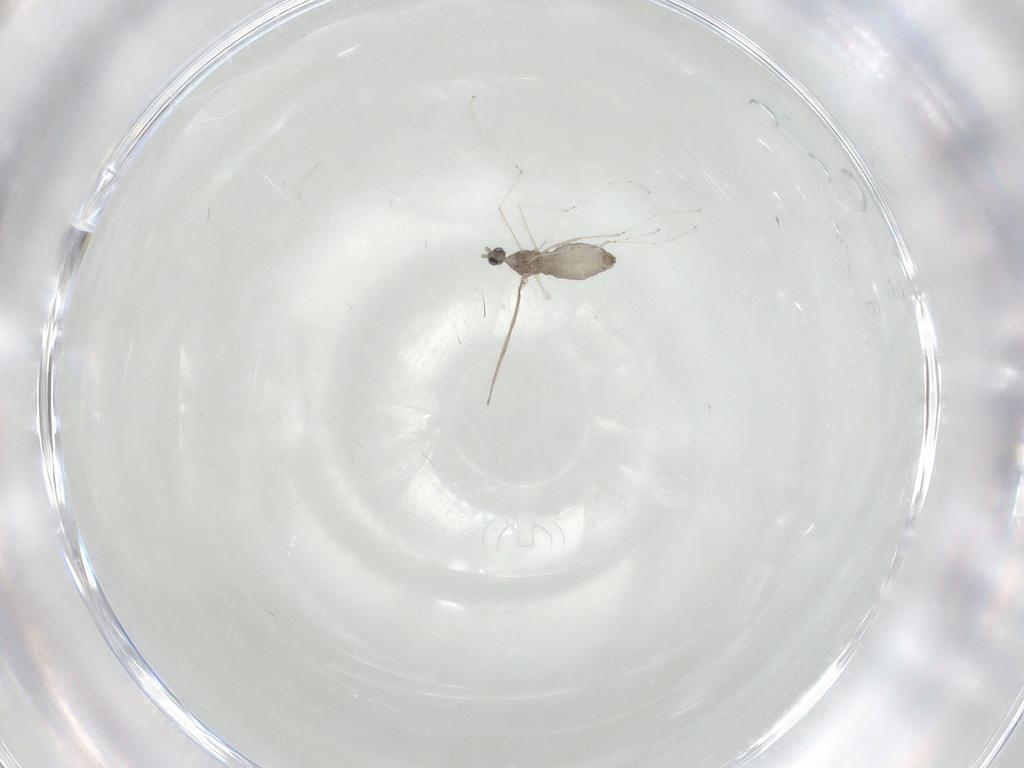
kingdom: Animalia
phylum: Arthropoda
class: Insecta
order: Diptera
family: Cecidomyiidae
